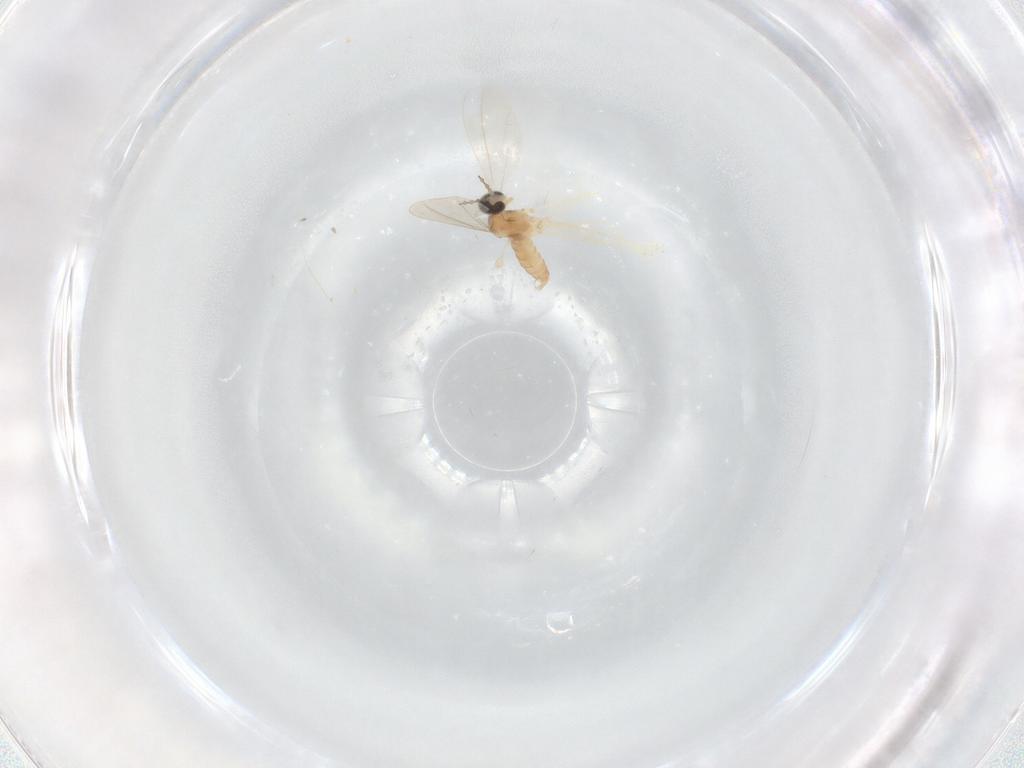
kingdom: Animalia
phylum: Arthropoda
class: Insecta
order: Diptera
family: Cecidomyiidae
